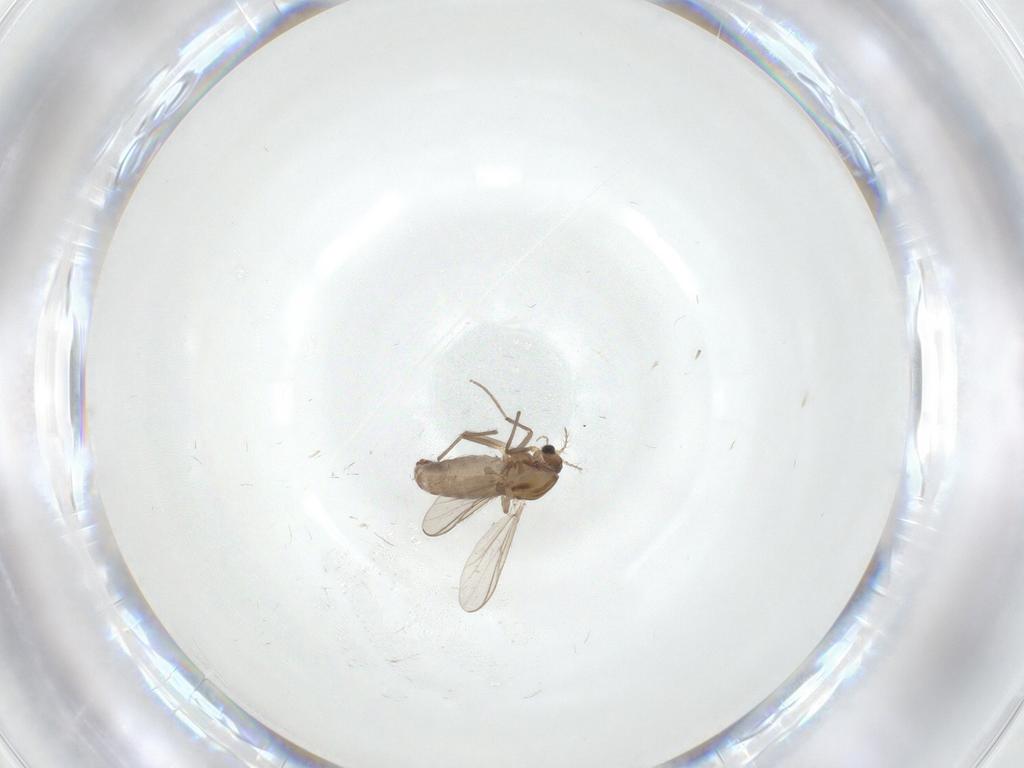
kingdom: Animalia
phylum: Arthropoda
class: Insecta
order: Diptera
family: Chironomidae
